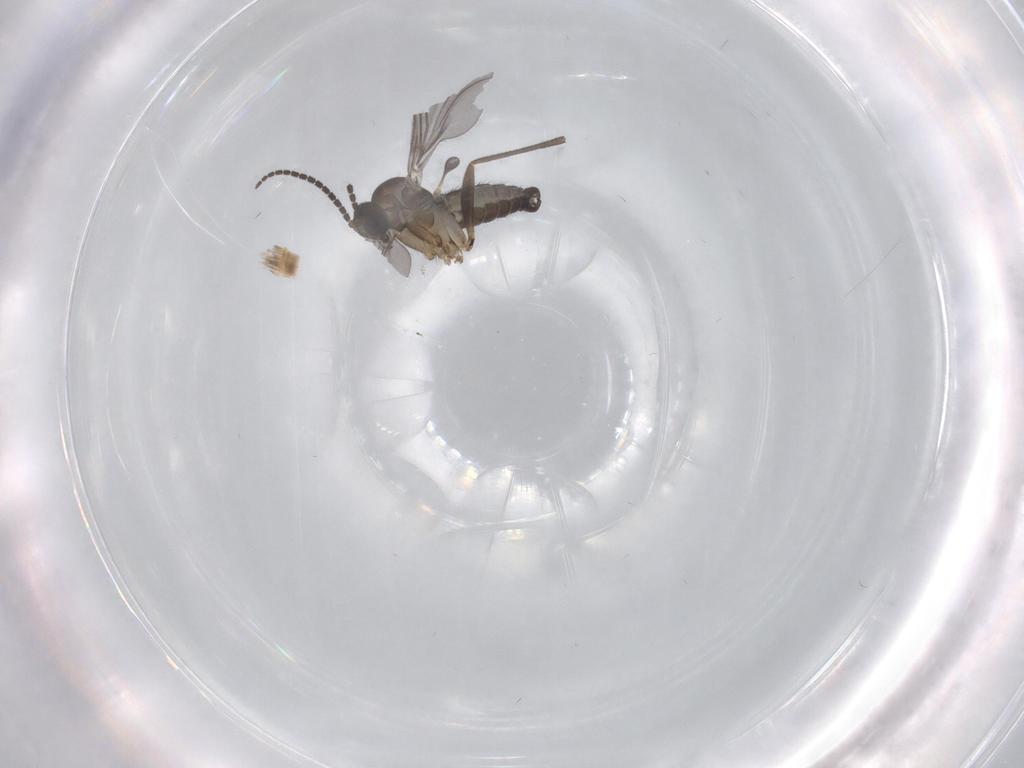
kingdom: Animalia
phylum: Arthropoda
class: Insecta
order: Diptera
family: Sciaridae
